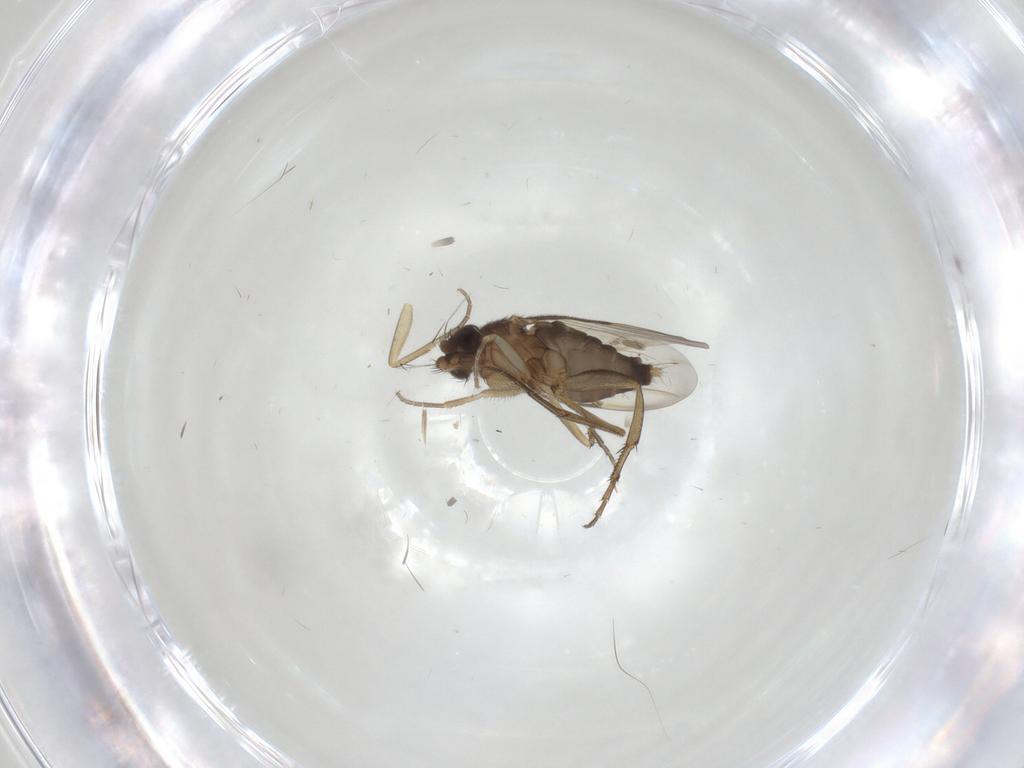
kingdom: Animalia
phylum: Arthropoda
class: Insecta
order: Diptera
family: Phoridae
